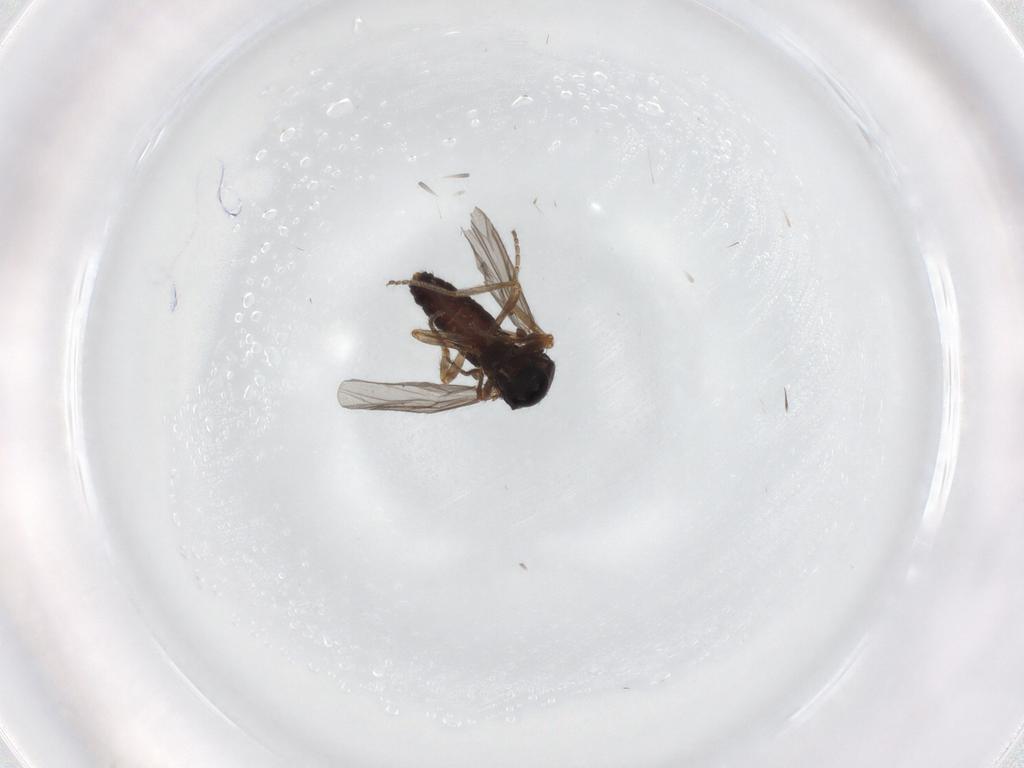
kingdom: Animalia
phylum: Arthropoda
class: Insecta
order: Diptera
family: Ceratopogonidae
